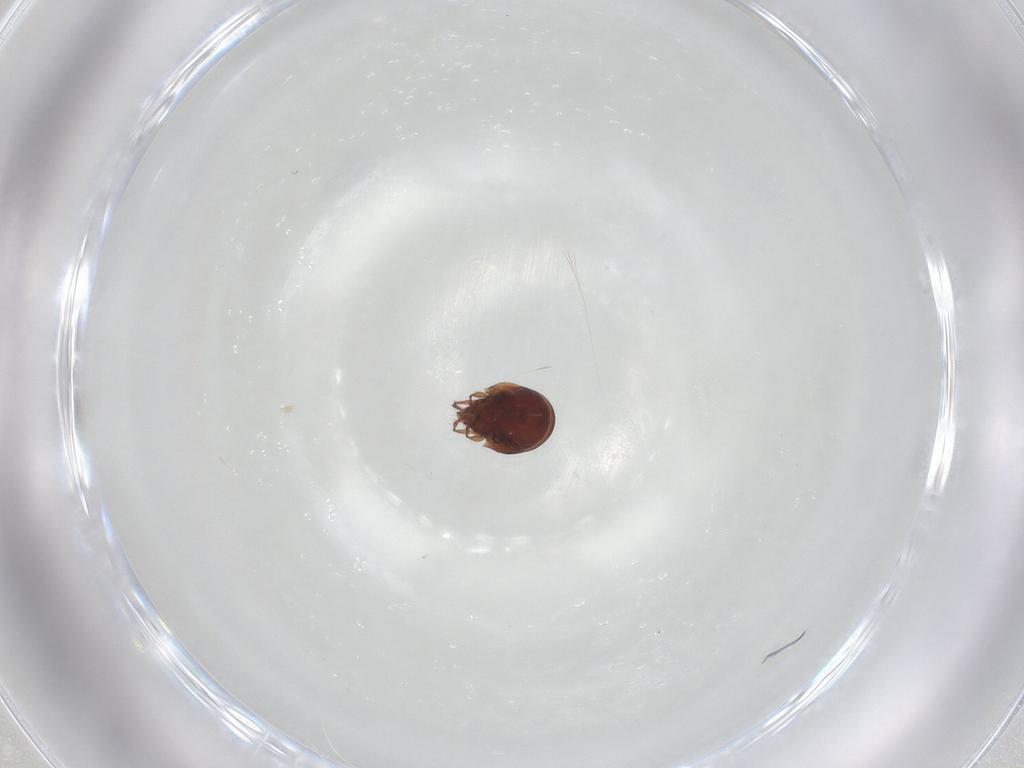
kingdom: Animalia
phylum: Arthropoda
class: Arachnida
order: Sarcoptiformes
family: Ceratozetidae
